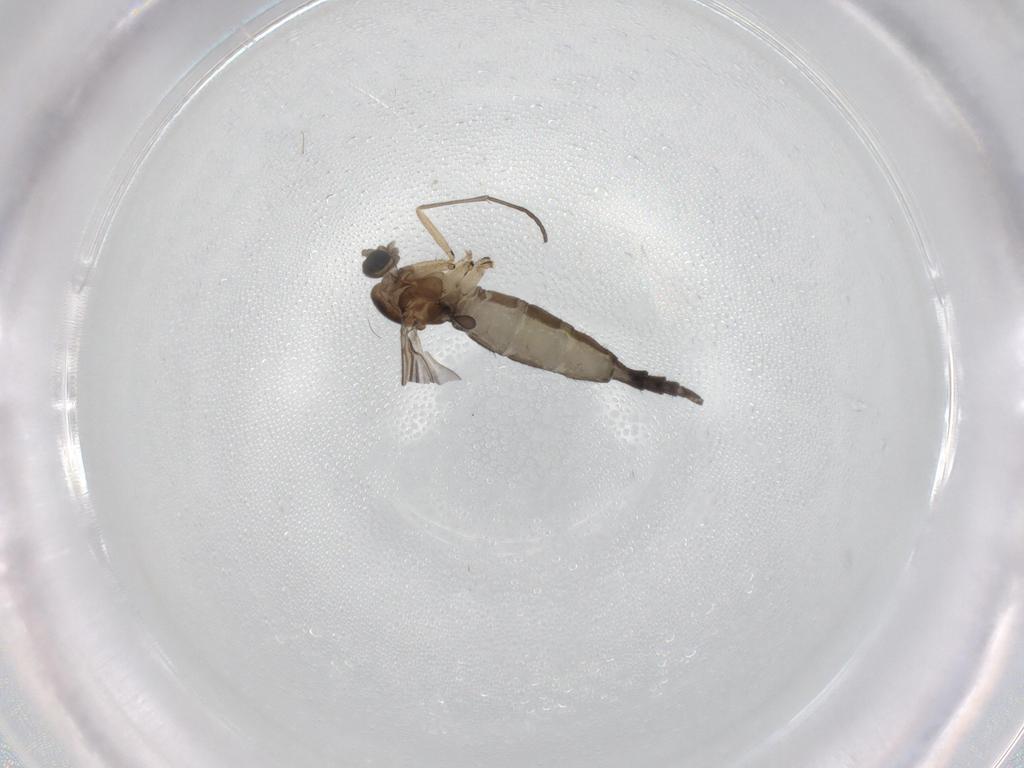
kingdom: Animalia
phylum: Arthropoda
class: Insecta
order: Diptera
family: Sciaridae
